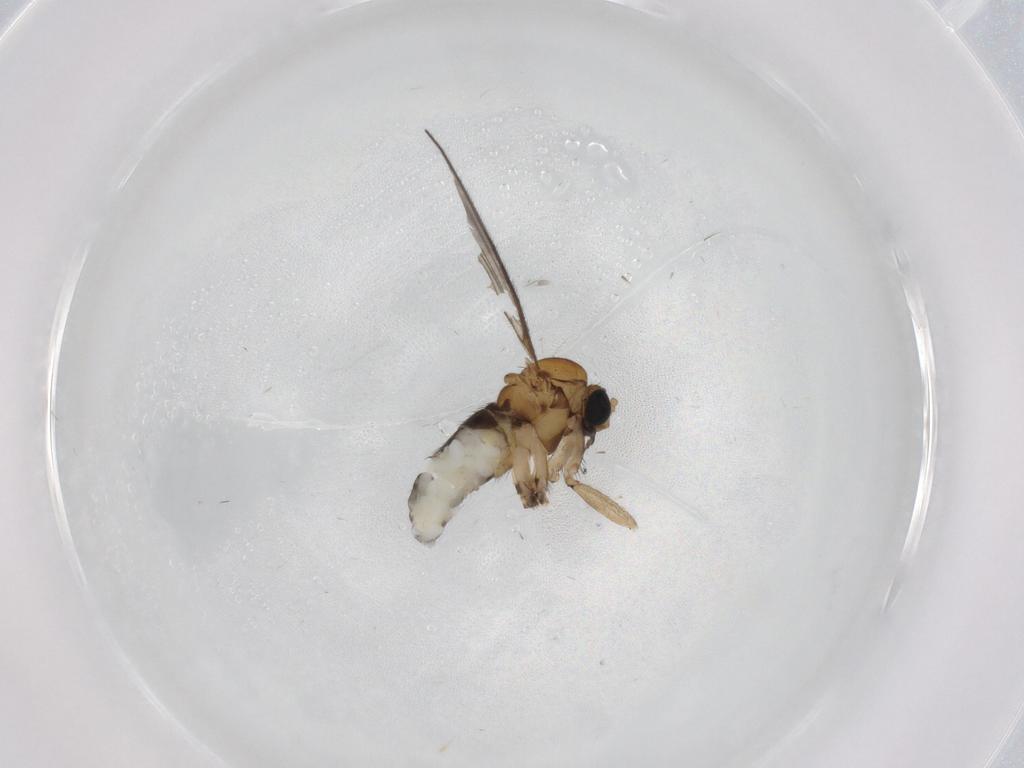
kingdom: Animalia
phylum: Arthropoda
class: Insecta
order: Diptera
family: Sciaridae
